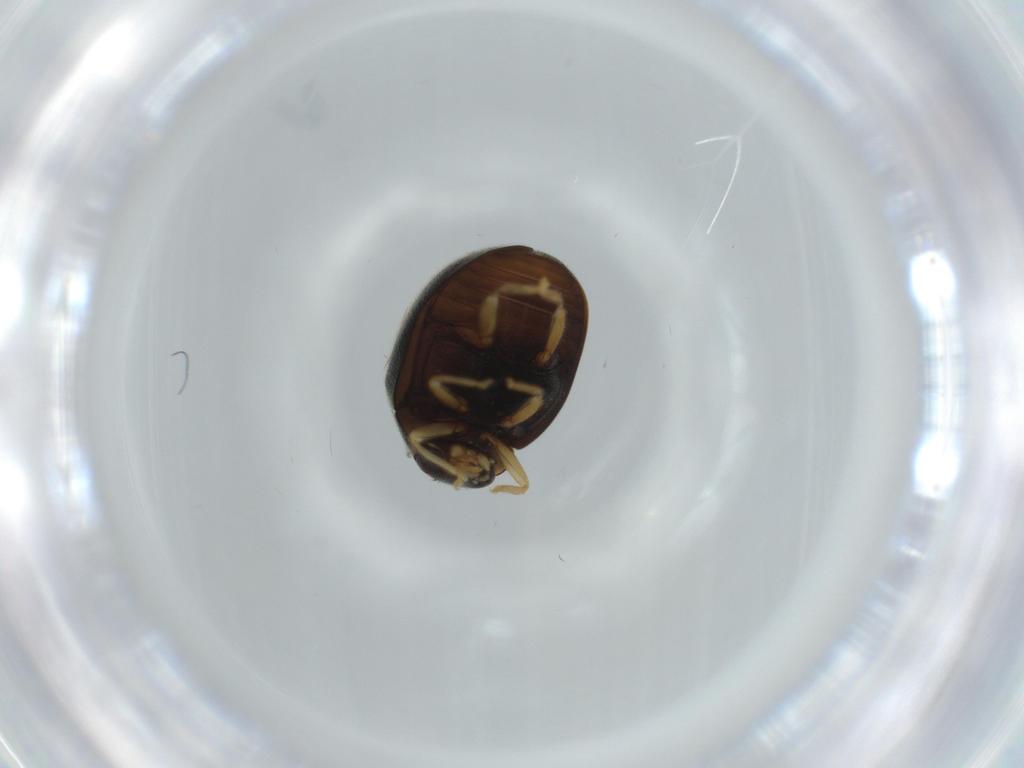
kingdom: Animalia
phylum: Arthropoda
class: Insecta
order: Coleoptera
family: Coccinellidae
